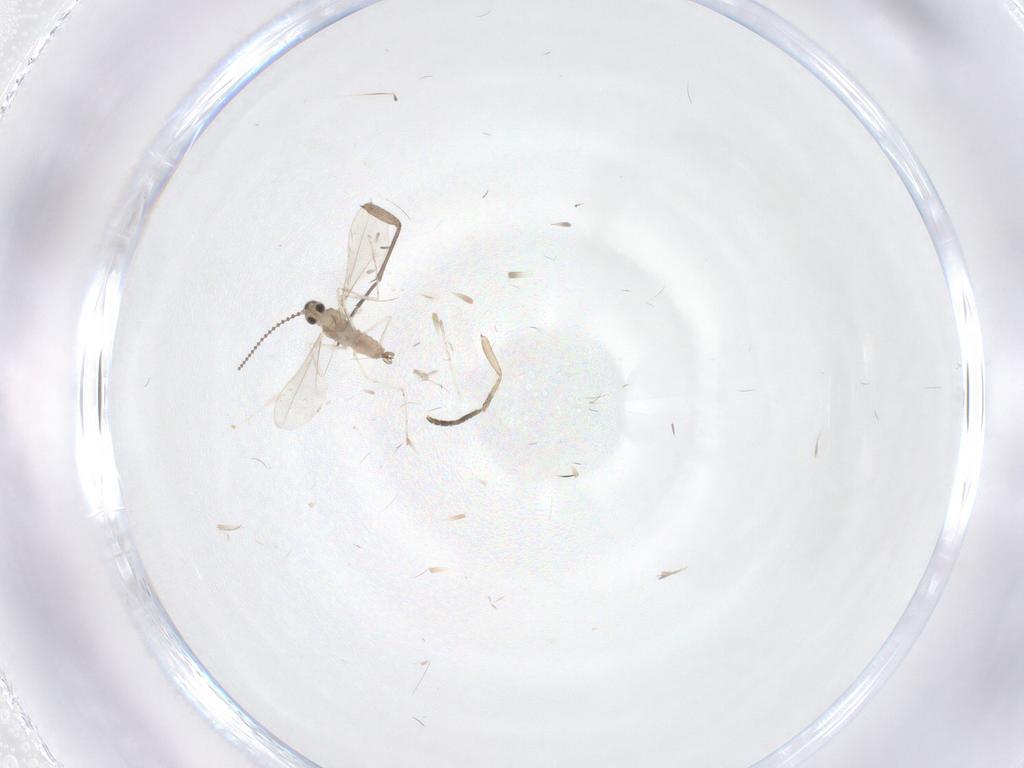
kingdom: Animalia
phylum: Arthropoda
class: Insecta
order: Diptera
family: Cecidomyiidae
